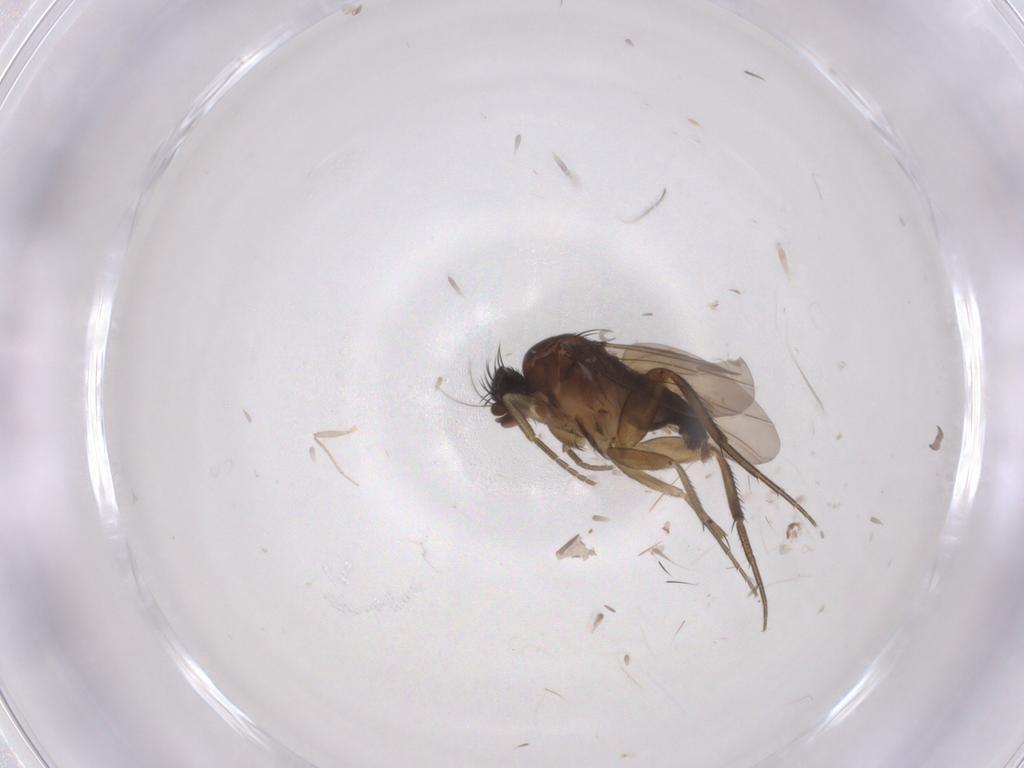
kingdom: Animalia
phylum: Arthropoda
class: Insecta
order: Diptera
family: Phoridae
